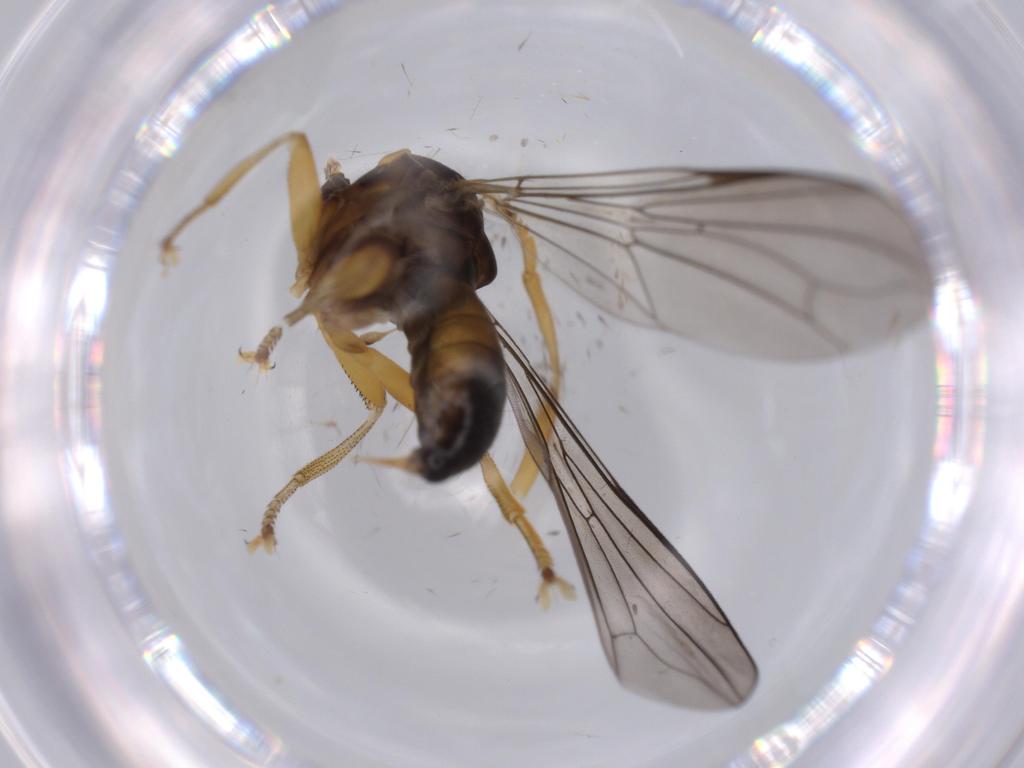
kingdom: Animalia
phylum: Arthropoda
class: Insecta
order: Diptera
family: Pipunculidae
